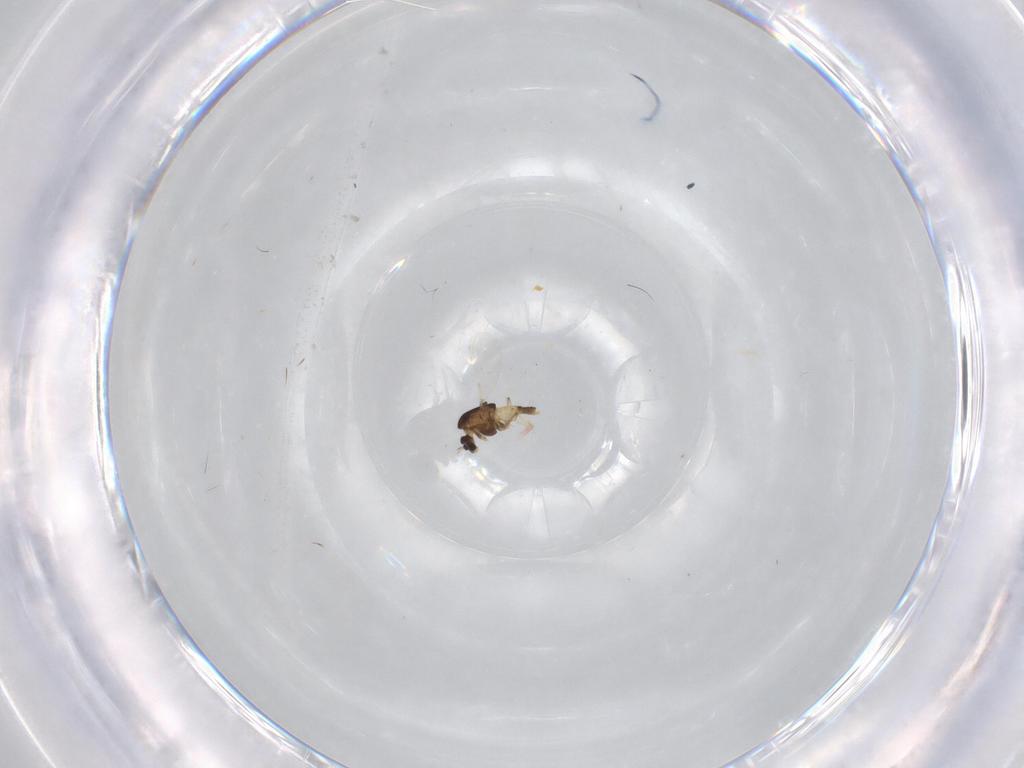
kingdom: Animalia
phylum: Arthropoda
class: Insecta
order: Diptera
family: Chironomidae
